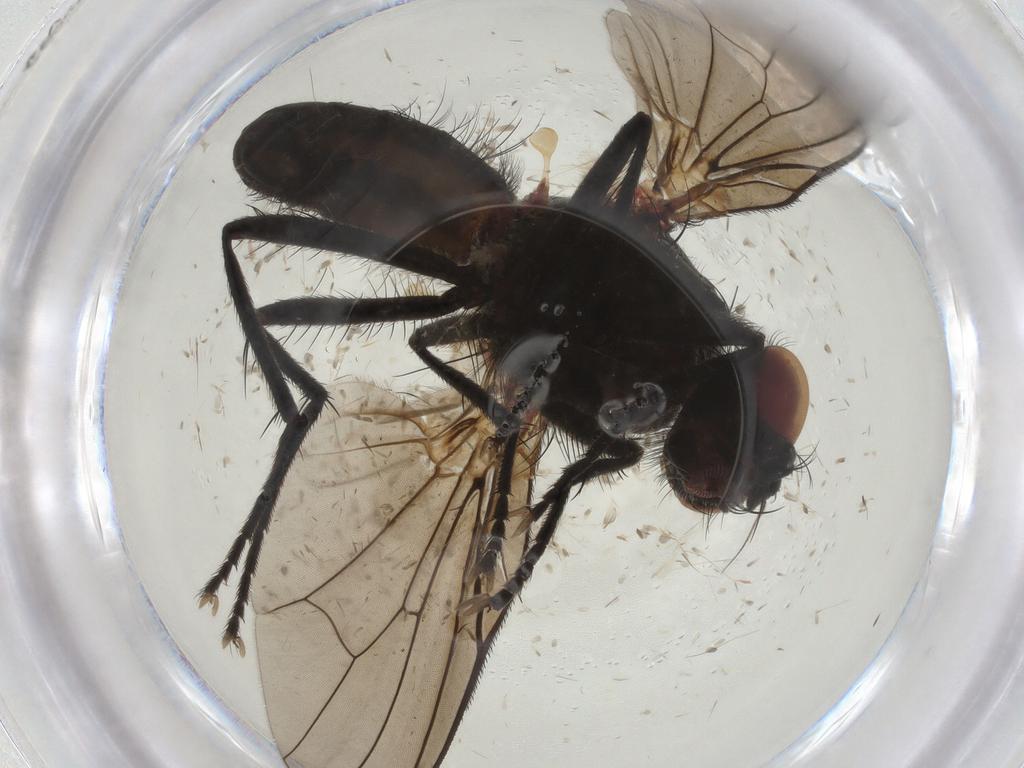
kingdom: Animalia
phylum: Arthropoda
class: Insecta
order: Diptera
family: Anthomyiidae
